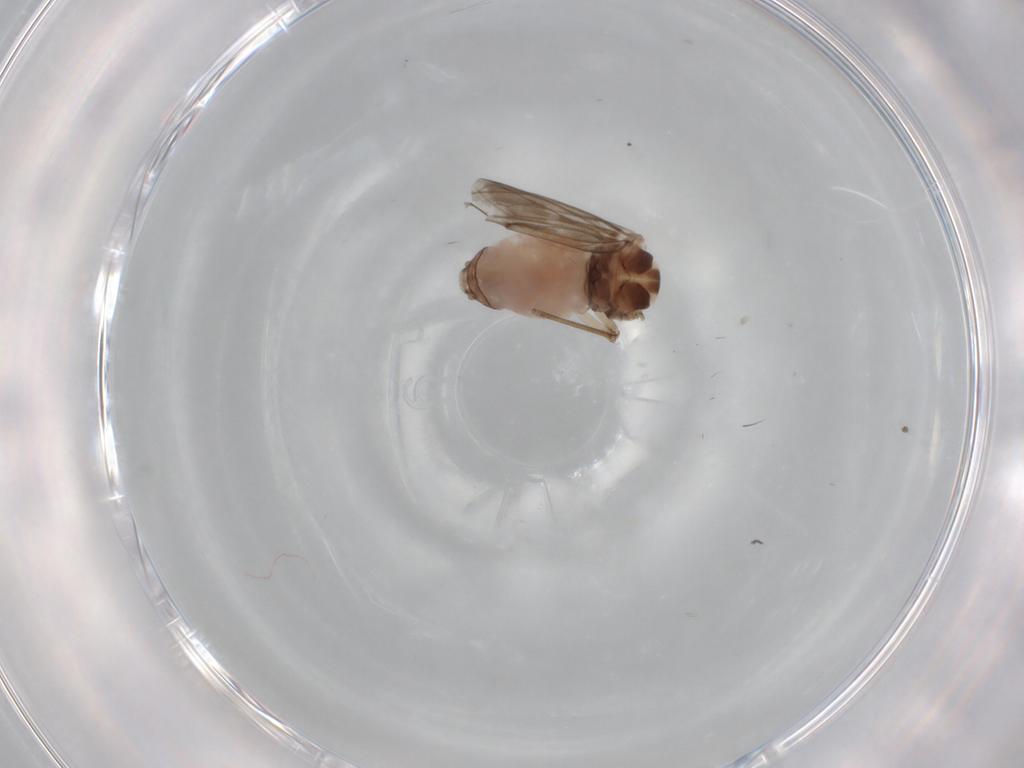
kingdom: Animalia
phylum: Arthropoda
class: Insecta
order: Psocodea
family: Peripsocidae
